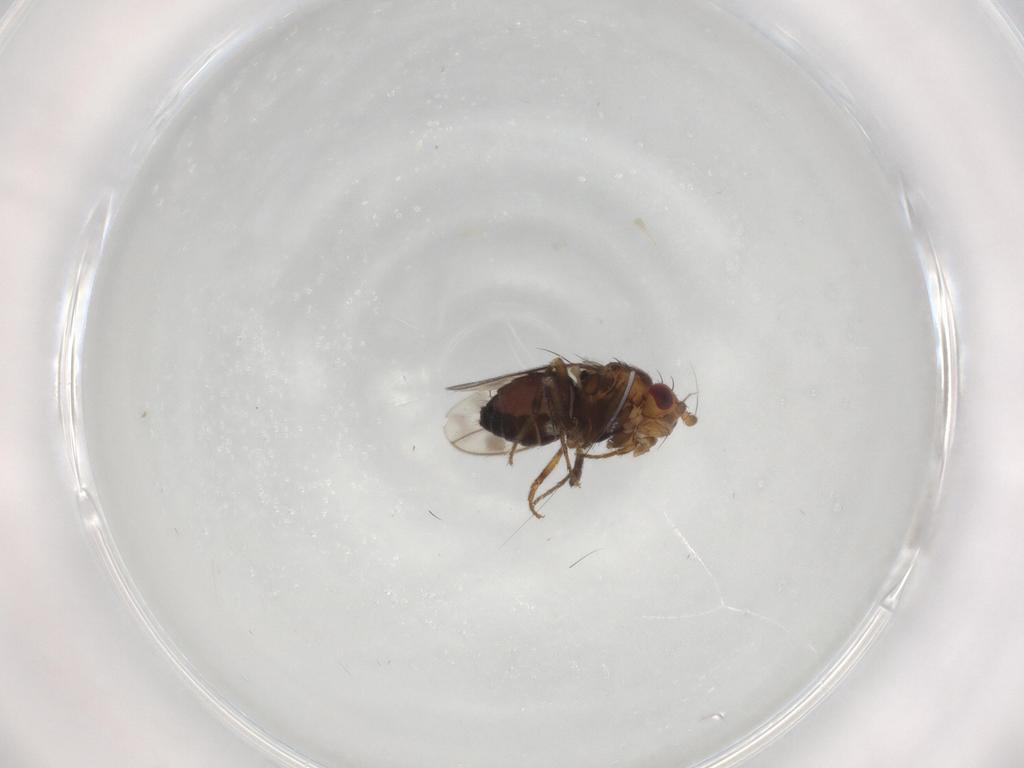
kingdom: Animalia
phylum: Arthropoda
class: Insecta
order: Diptera
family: Sphaeroceridae
